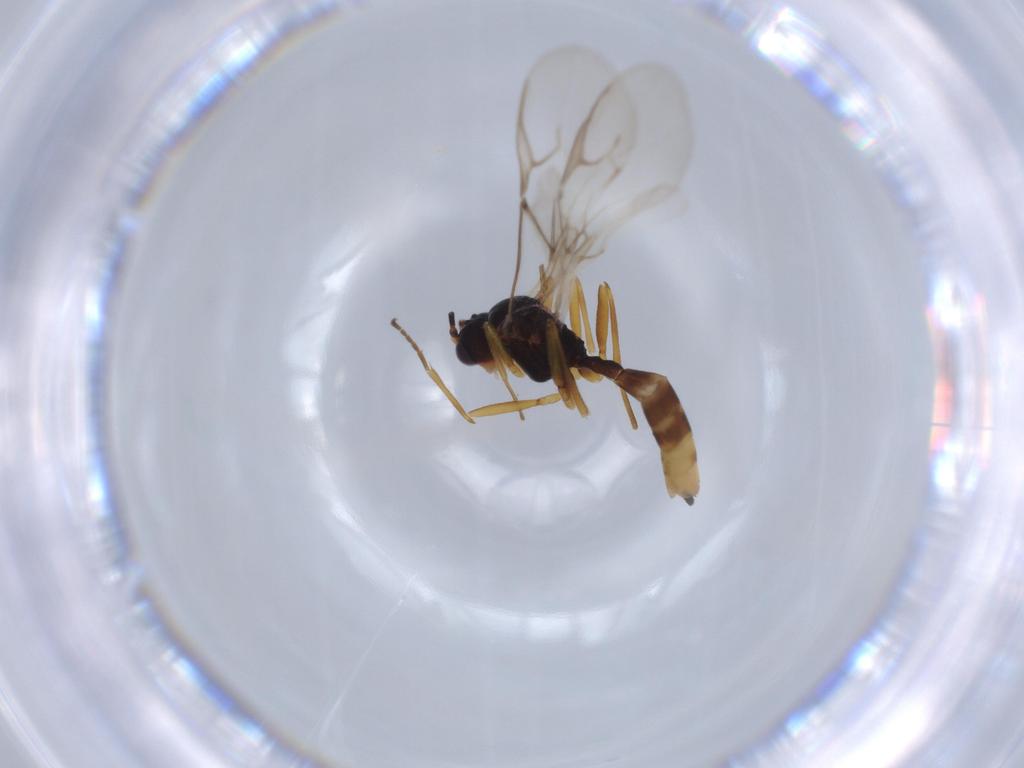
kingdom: Animalia
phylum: Arthropoda
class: Insecta
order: Hymenoptera
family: Braconidae
